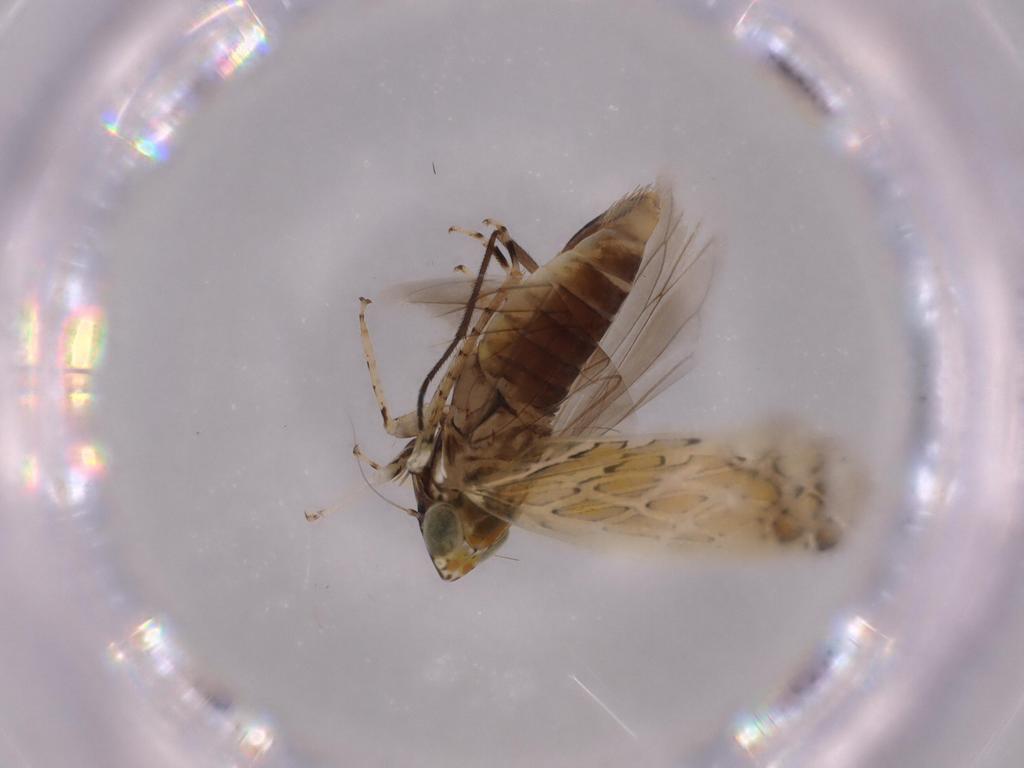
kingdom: Animalia
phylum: Arthropoda
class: Insecta
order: Hemiptera
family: Cicadellidae
